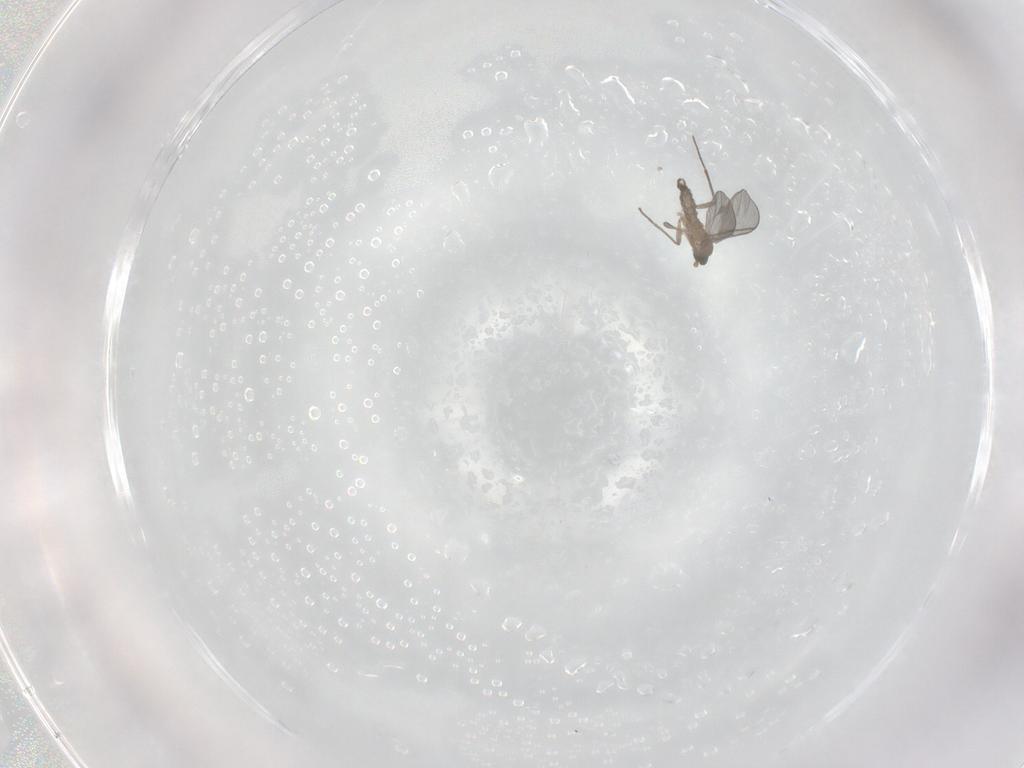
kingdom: Animalia
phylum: Arthropoda
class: Insecta
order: Diptera
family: Sciaridae
